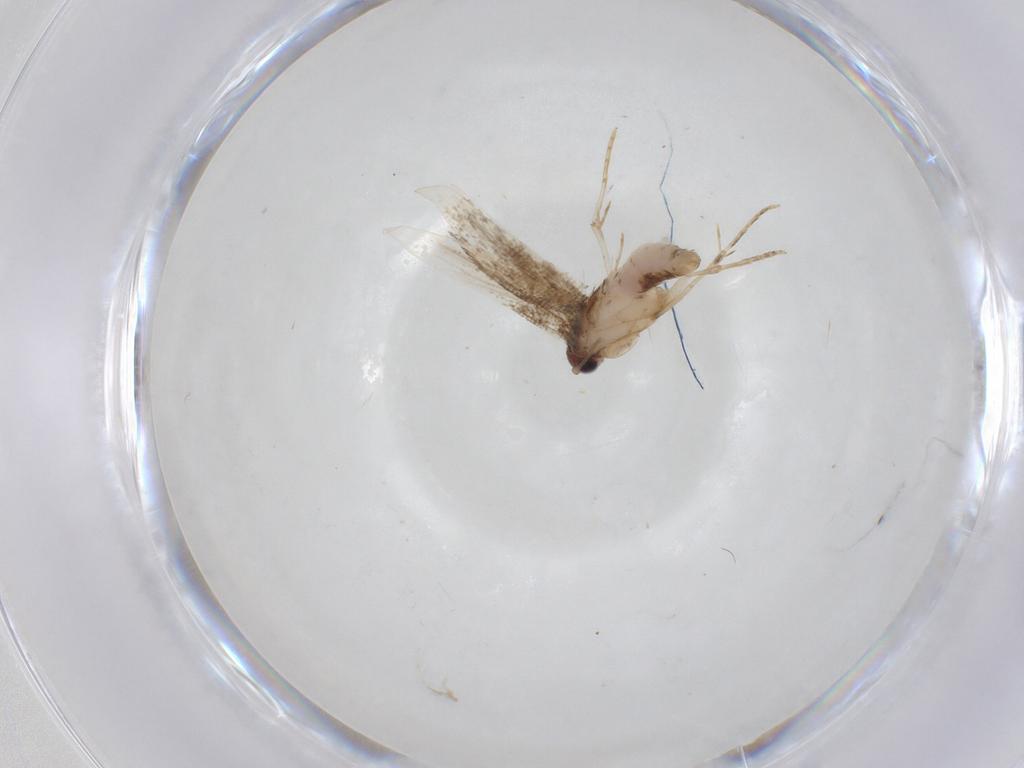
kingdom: Animalia
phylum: Arthropoda
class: Insecta
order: Lepidoptera
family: Tineidae
